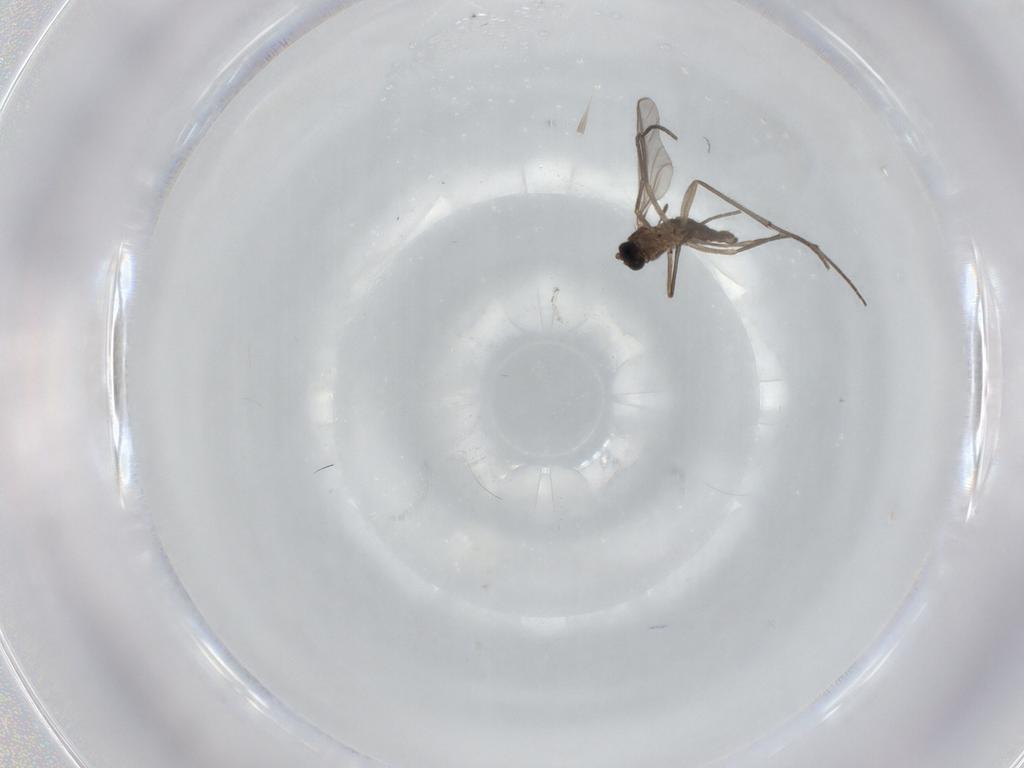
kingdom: Animalia
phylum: Arthropoda
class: Insecta
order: Diptera
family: Sciaridae
